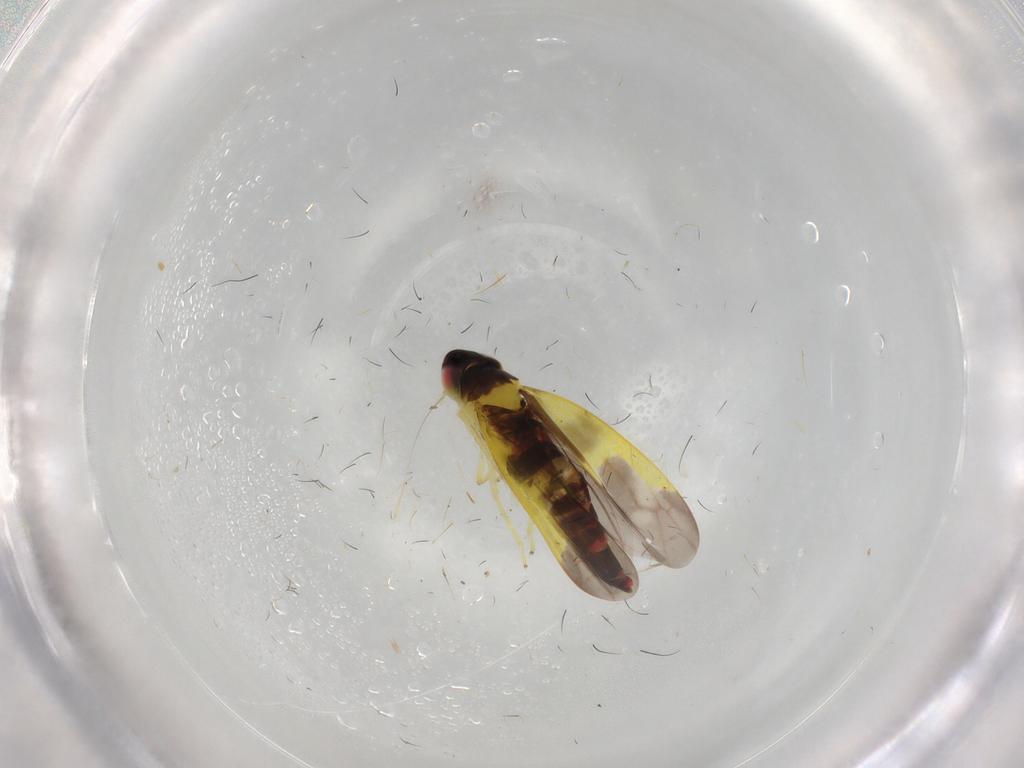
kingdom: Animalia
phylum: Arthropoda
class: Insecta
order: Hemiptera
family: Cicadellidae
